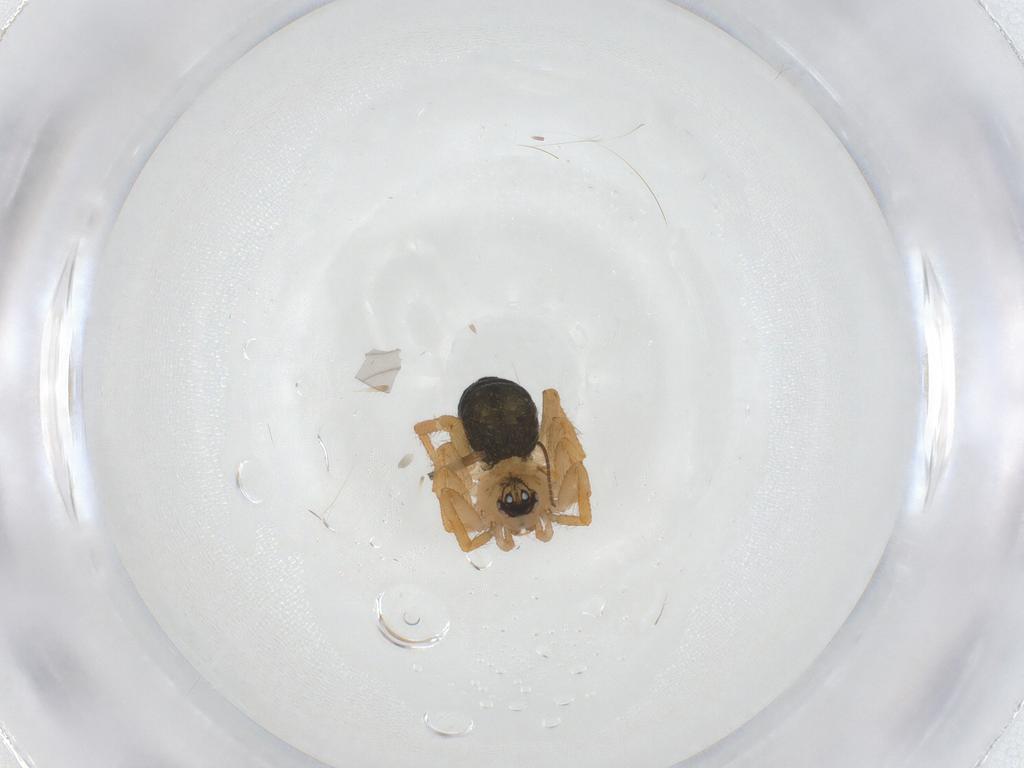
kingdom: Animalia
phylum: Arthropoda
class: Arachnida
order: Araneae
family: Theridiidae
